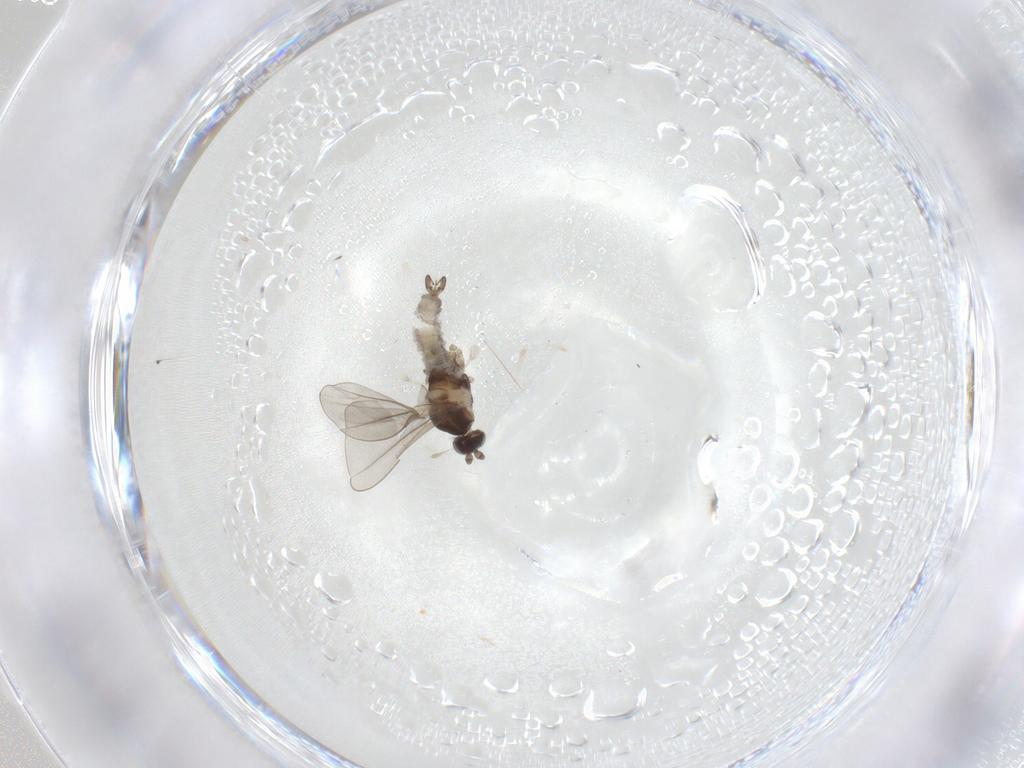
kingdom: Animalia
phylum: Arthropoda
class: Insecta
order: Diptera
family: Cecidomyiidae
